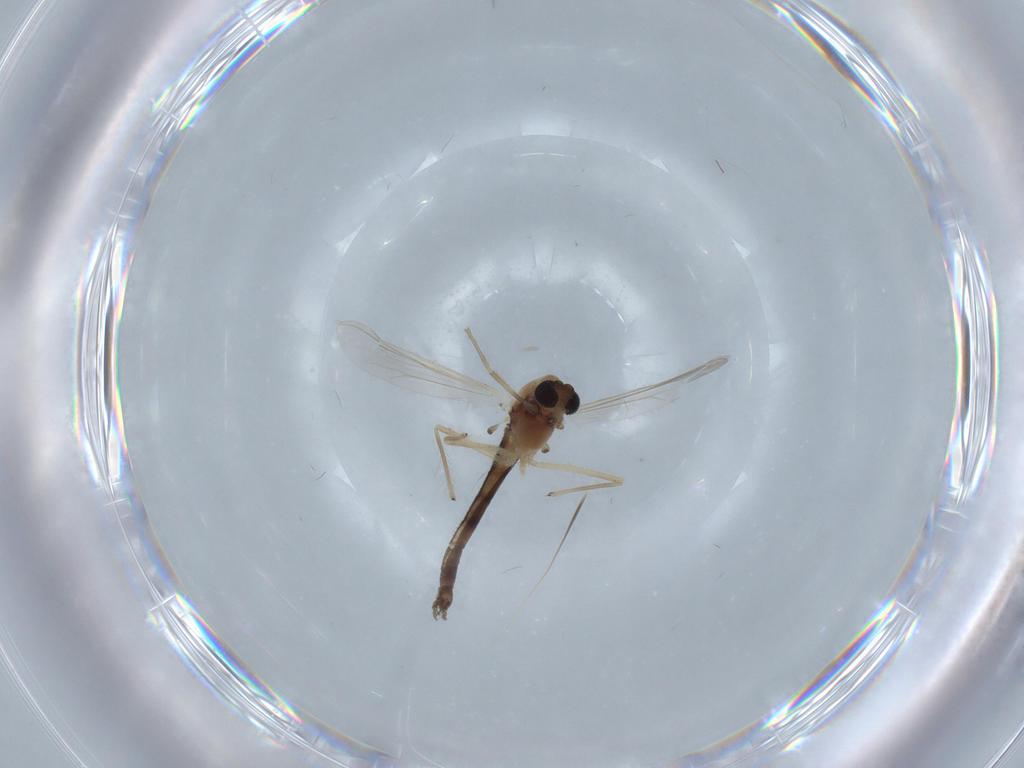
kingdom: Animalia
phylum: Arthropoda
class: Insecta
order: Diptera
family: Chironomidae
